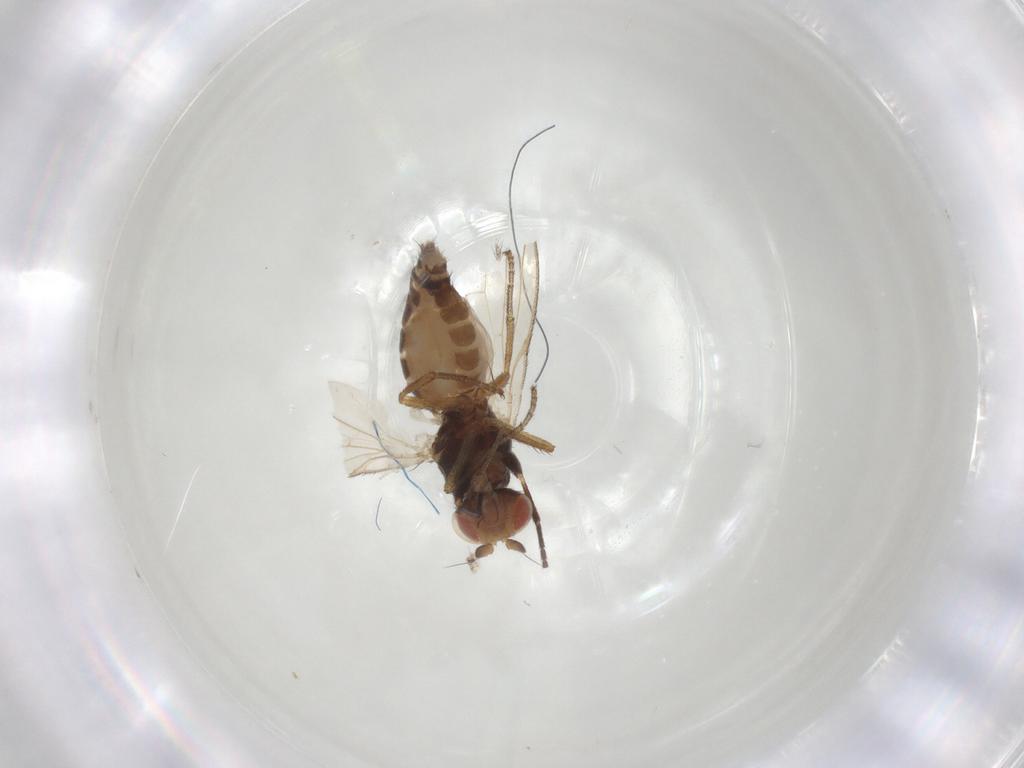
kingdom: Animalia
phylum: Arthropoda
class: Insecta
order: Diptera
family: Heleomyzidae
